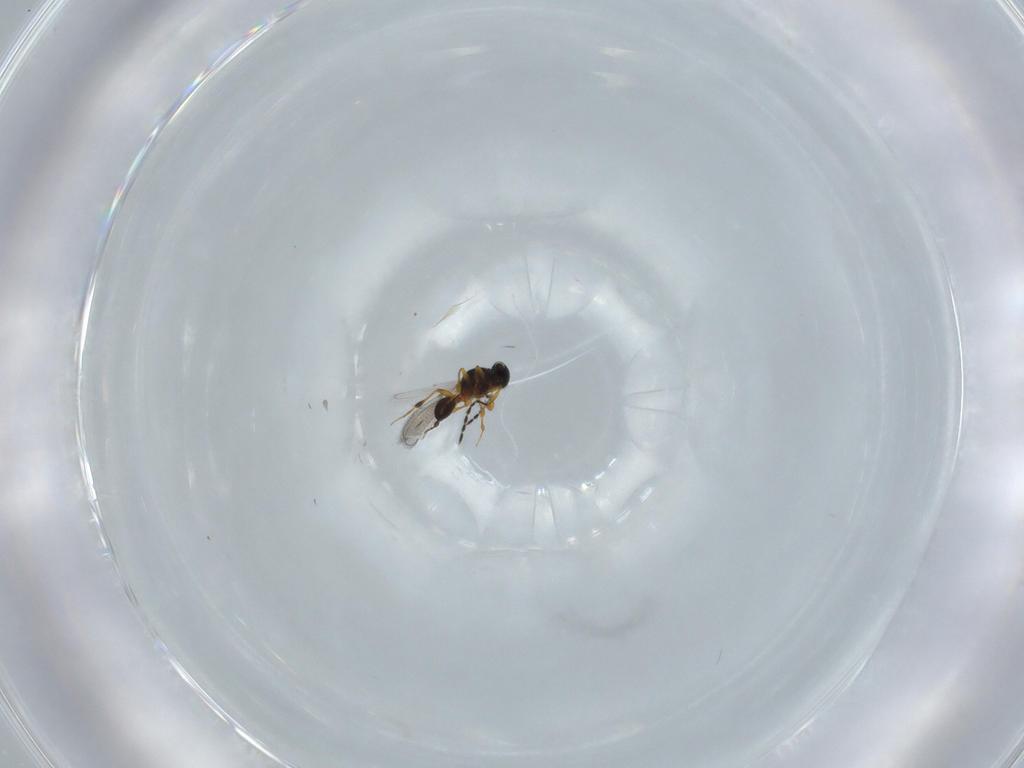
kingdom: Animalia
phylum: Arthropoda
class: Insecta
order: Hymenoptera
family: Platygastridae
